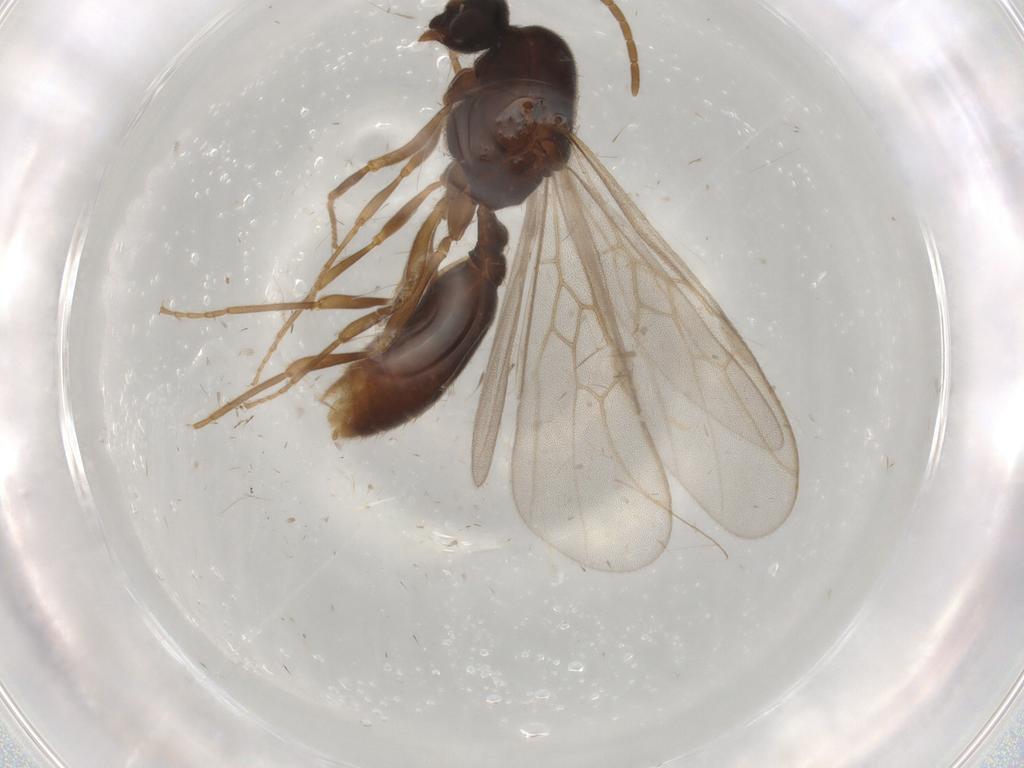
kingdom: Animalia
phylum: Arthropoda
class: Insecta
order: Hymenoptera
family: Formicidae
